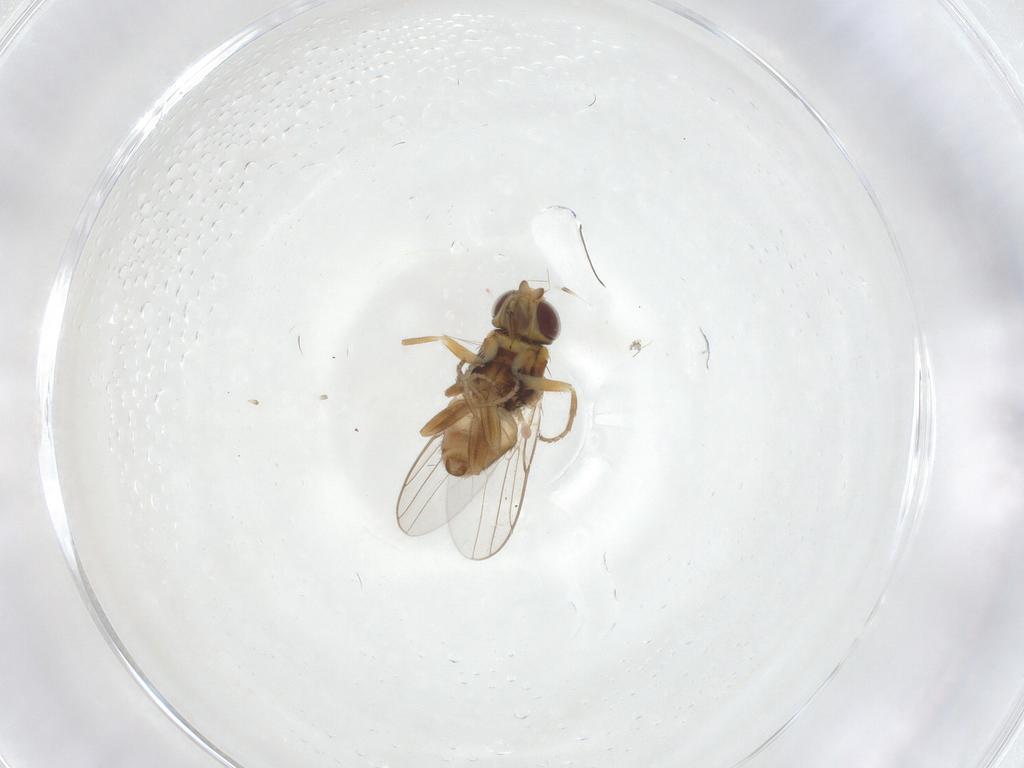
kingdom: Animalia
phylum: Arthropoda
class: Insecta
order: Diptera
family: Chloropidae
